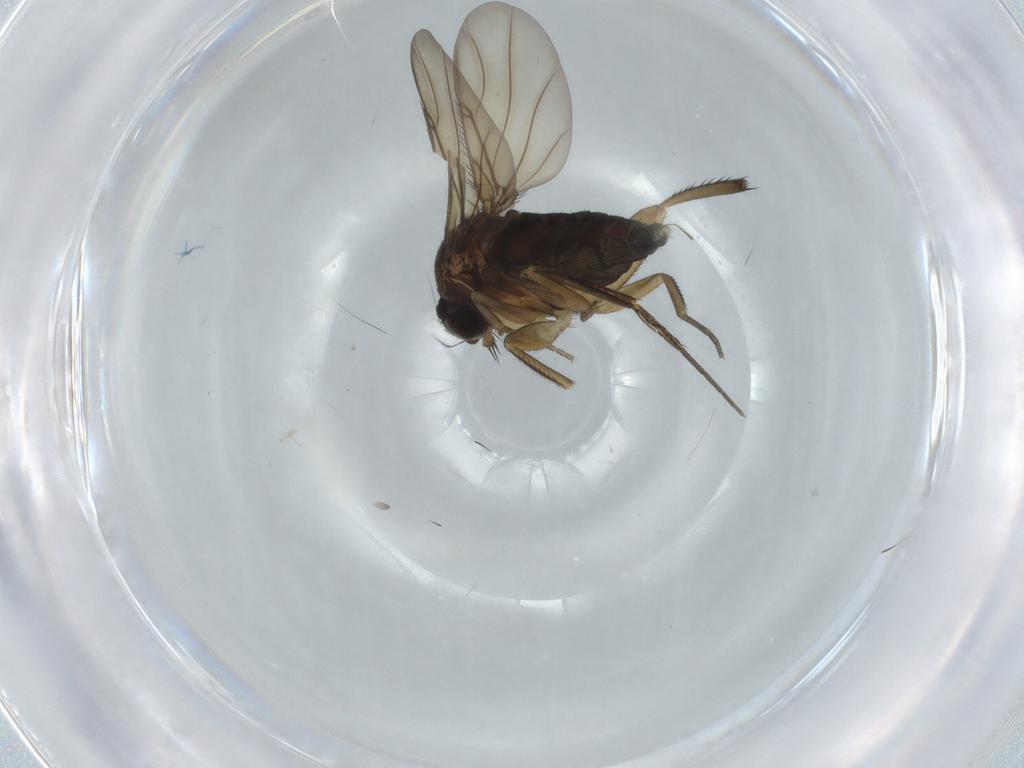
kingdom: Animalia
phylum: Arthropoda
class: Insecta
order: Diptera
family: Phoridae
